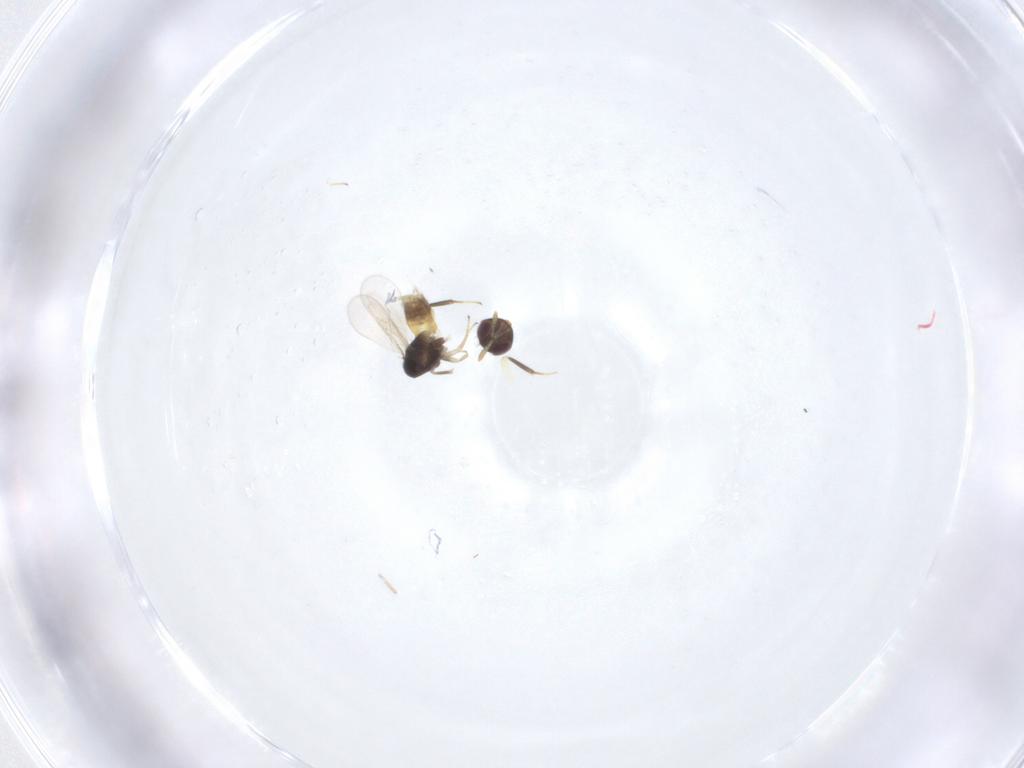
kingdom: Animalia
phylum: Arthropoda
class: Insecta
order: Hymenoptera
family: Aphelinidae
